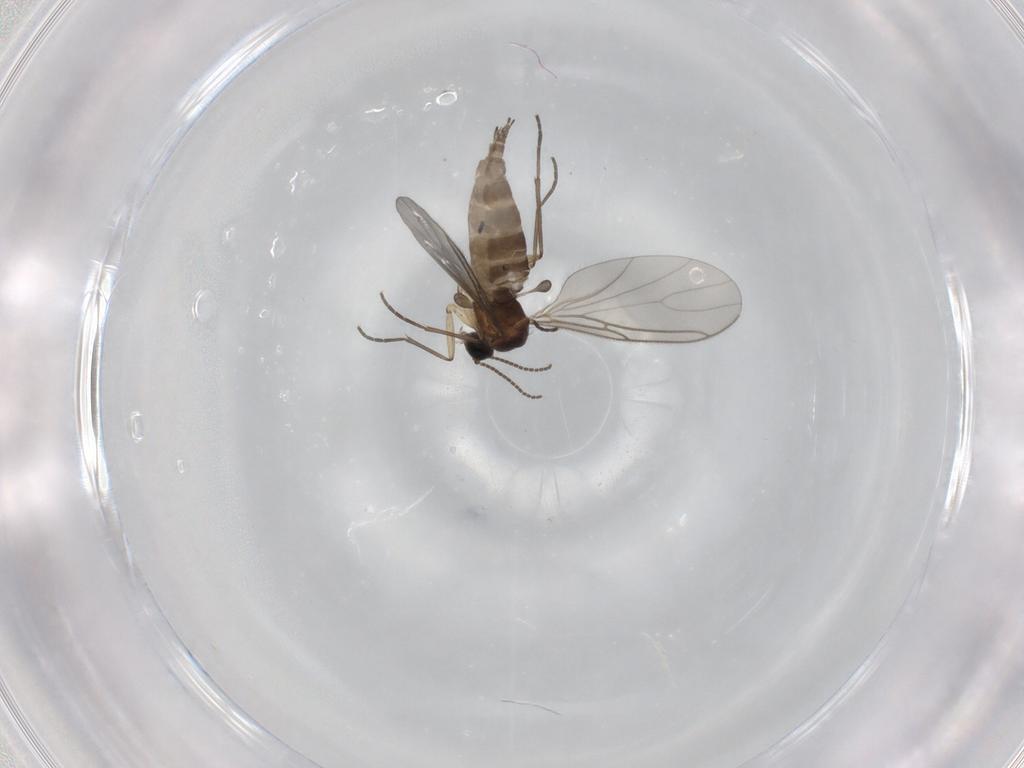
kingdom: Animalia
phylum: Arthropoda
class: Insecta
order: Diptera
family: Sciaridae
